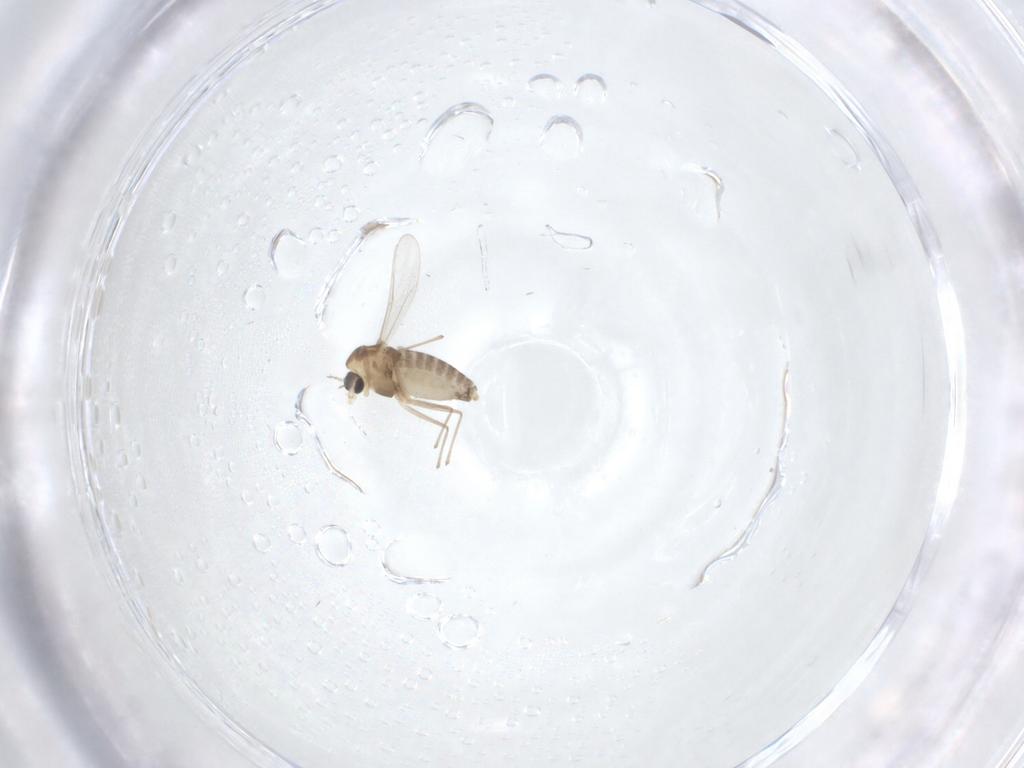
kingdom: Animalia
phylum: Arthropoda
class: Insecta
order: Diptera
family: Chironomidae
